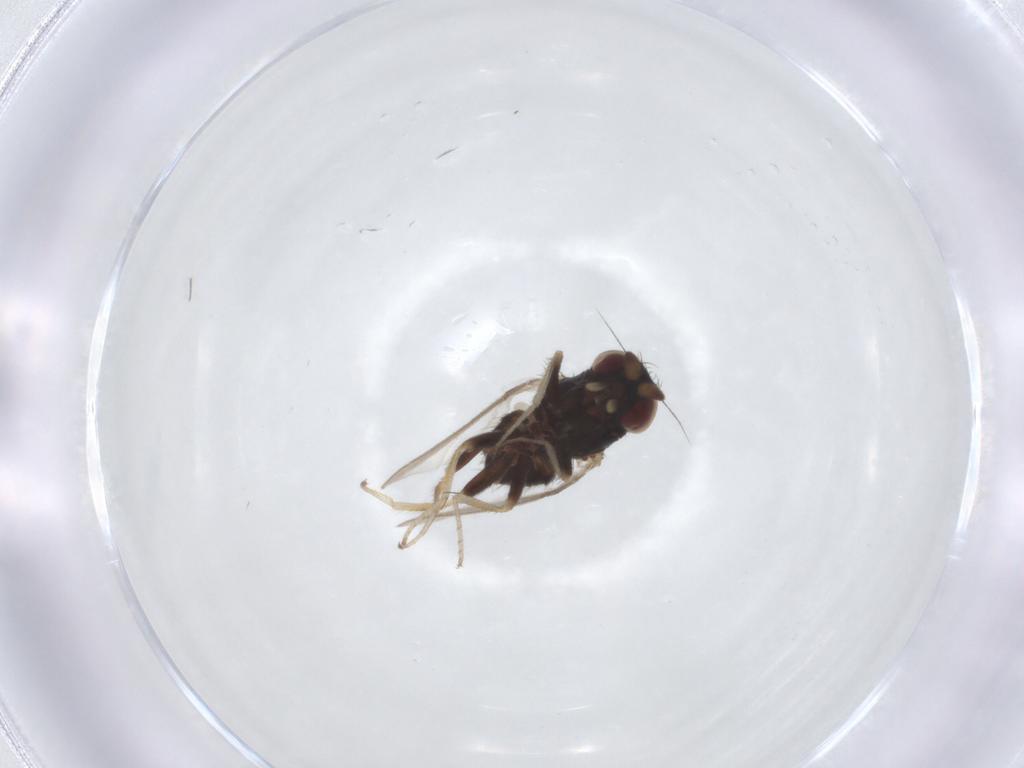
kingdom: Animalia
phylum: Arthropoda
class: Insecta
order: Diptera
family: Milichiidae
